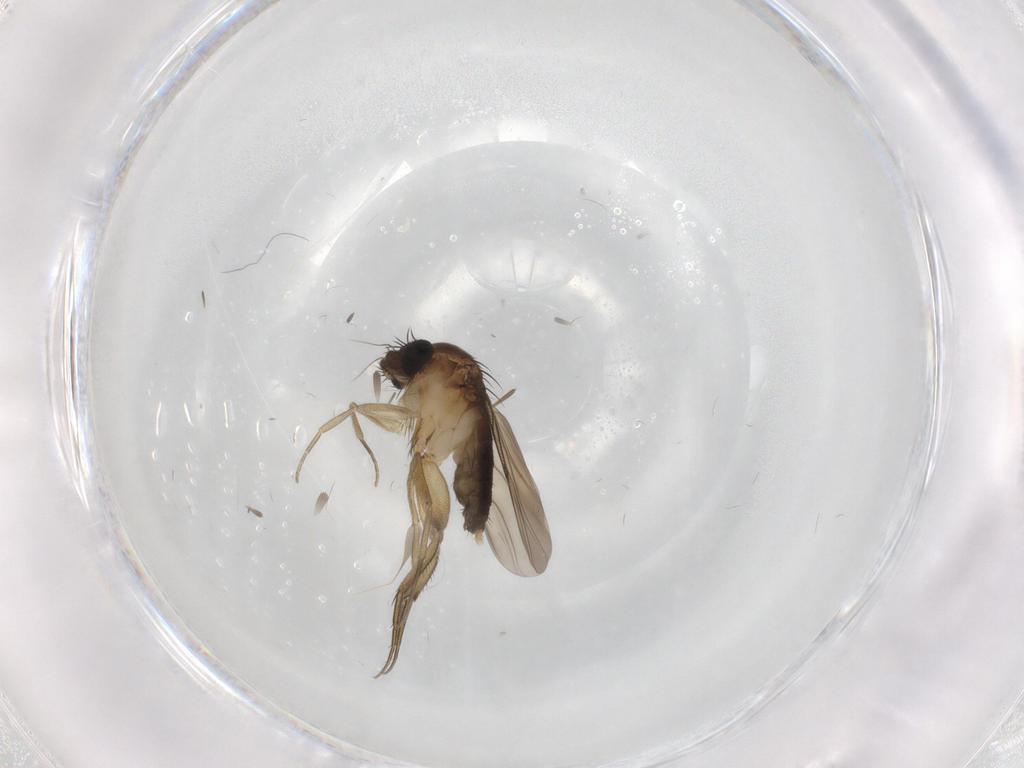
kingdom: Animalia
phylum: Arthropoda
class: Insecta
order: Diptera
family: Phoridae
